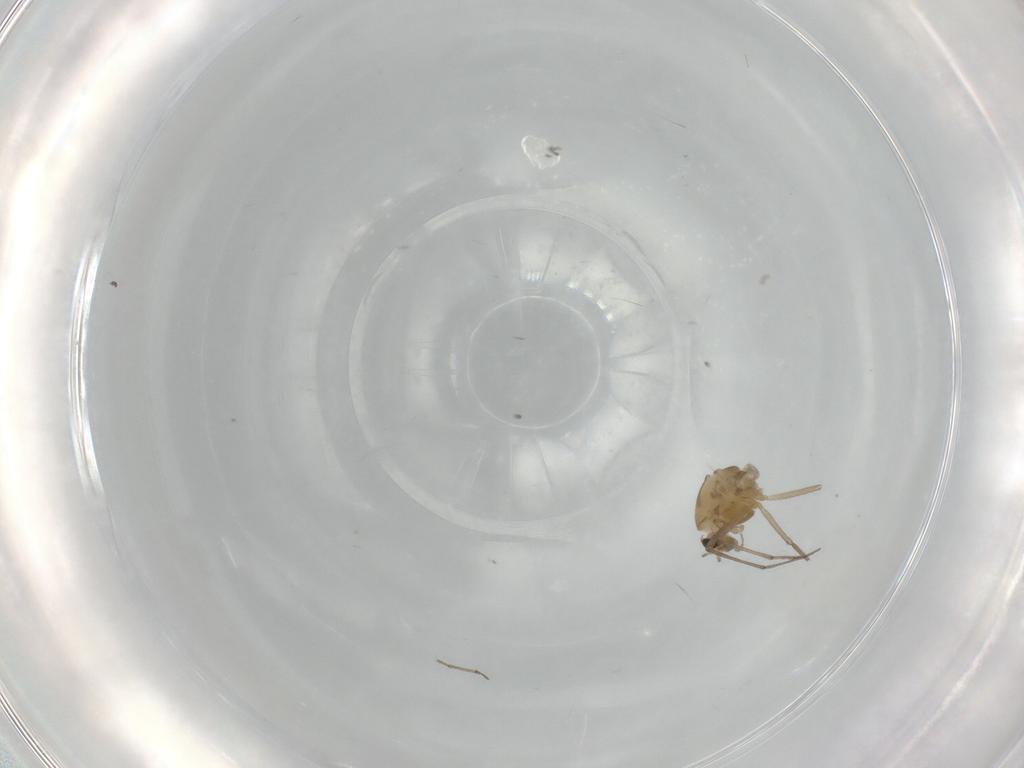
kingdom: Animalia
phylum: Arthropoda
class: Insecta
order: Diptera
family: Chironomidae
